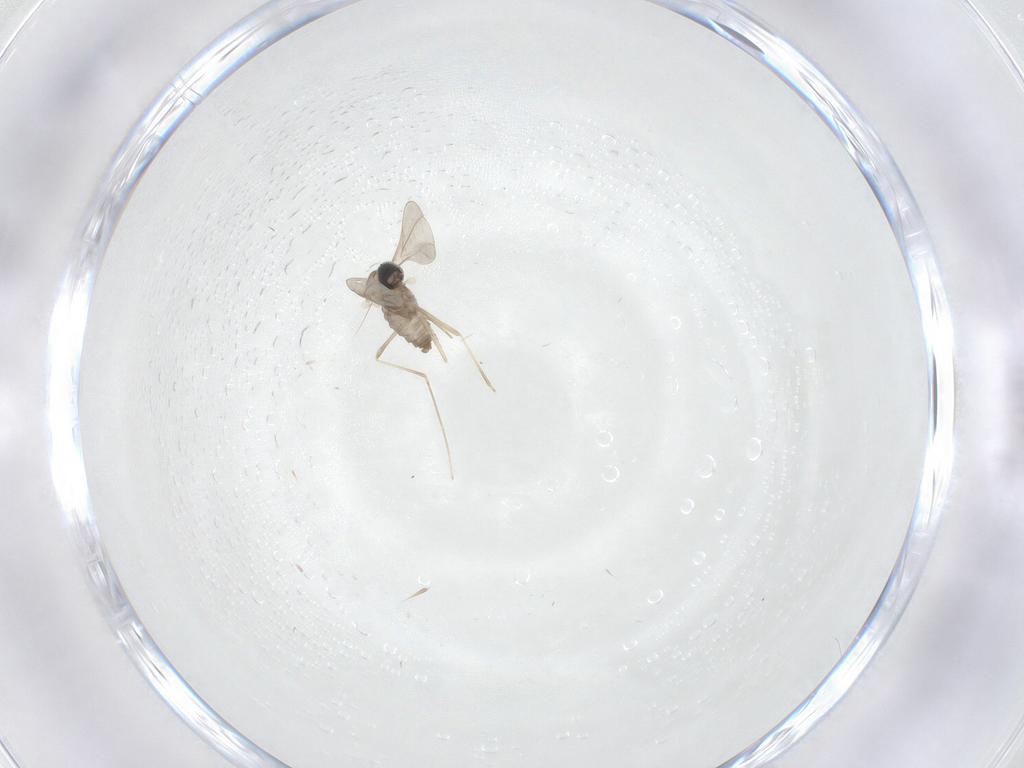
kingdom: Animalia
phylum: Arthropoda
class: Insecta
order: Diptera
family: Cecidomyiidae
